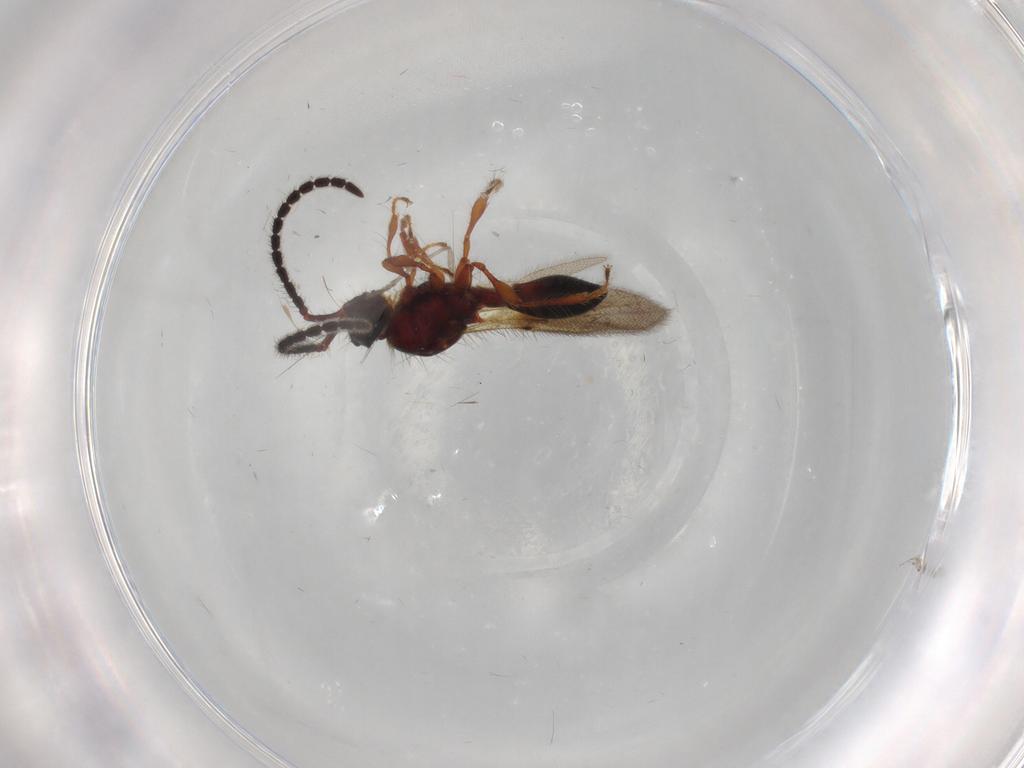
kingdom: Animalia
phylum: Arthropoda
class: Insecta
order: Hymenoptera
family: Diapriidae
